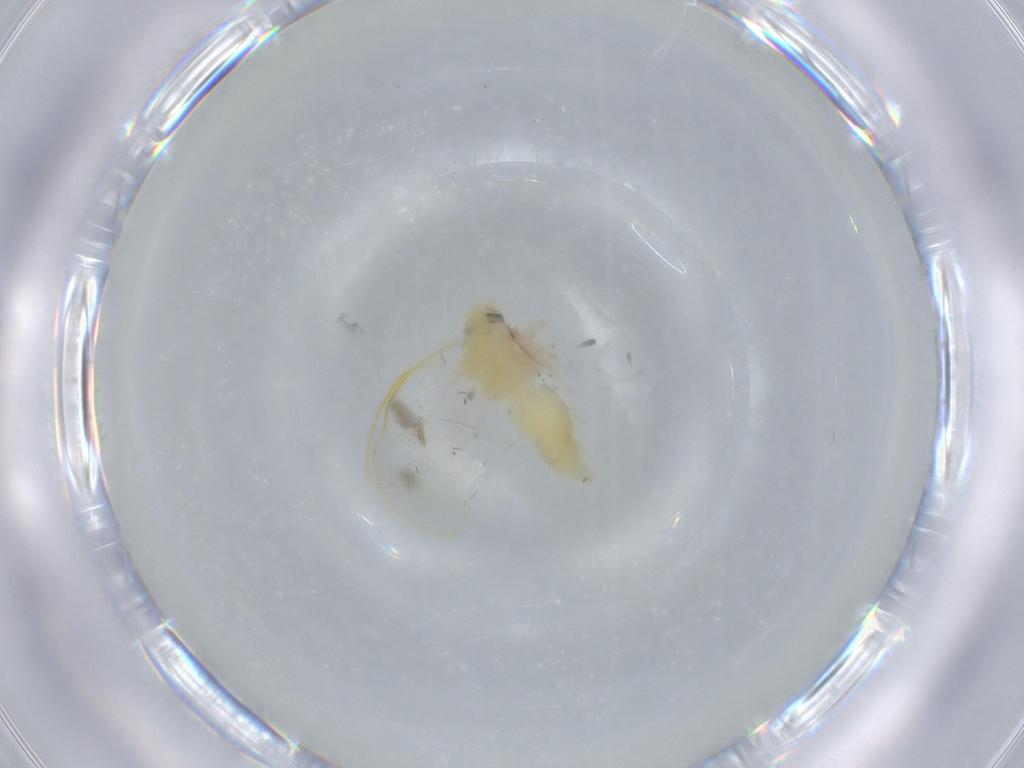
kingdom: Animalia
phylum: Arthropoda
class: Insecta
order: Hemiptera
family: Aleyrodidae
